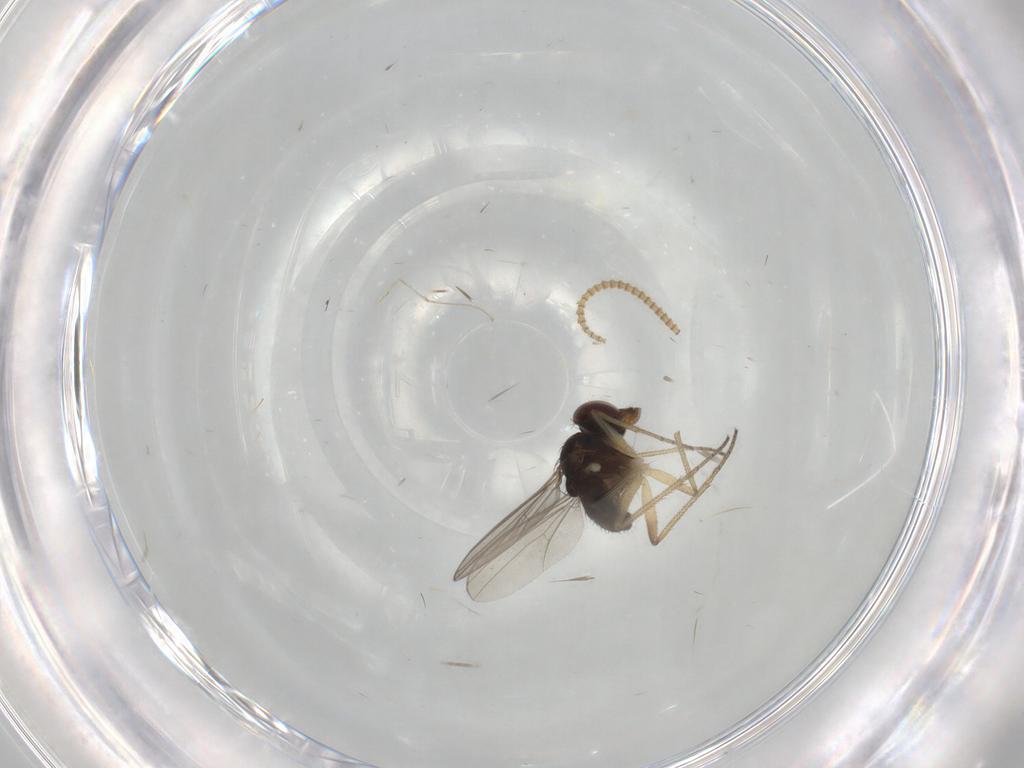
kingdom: Animalia
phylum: Arthropoda
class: Insecta
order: Diptera
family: Dolichopodidae
